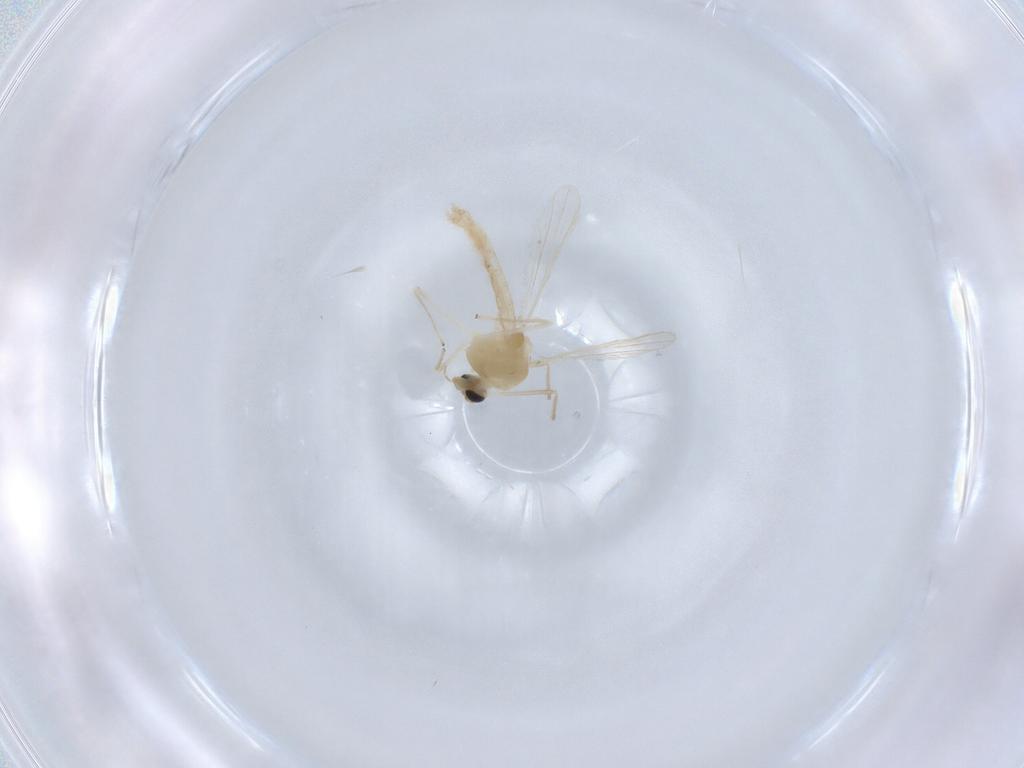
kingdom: Animalia
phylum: Arthropoda
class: Insecta
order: Diptera
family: Chironomidae
